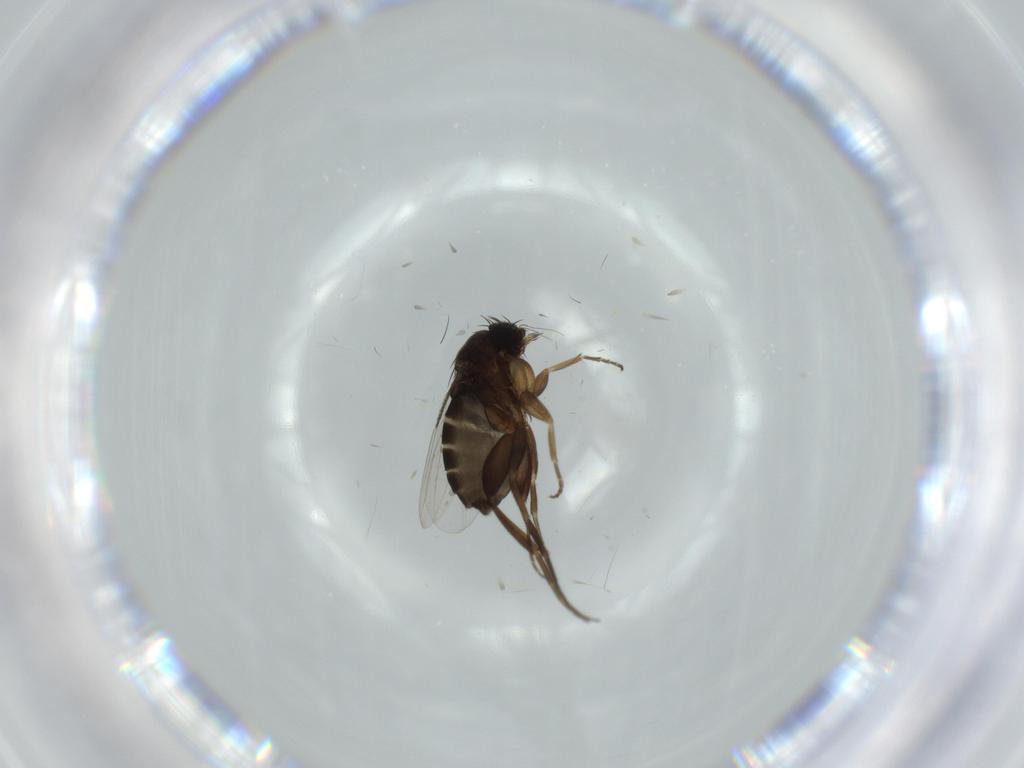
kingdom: Animalia
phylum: Arthropoda
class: Insecta
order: Diptera
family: Phoridae
